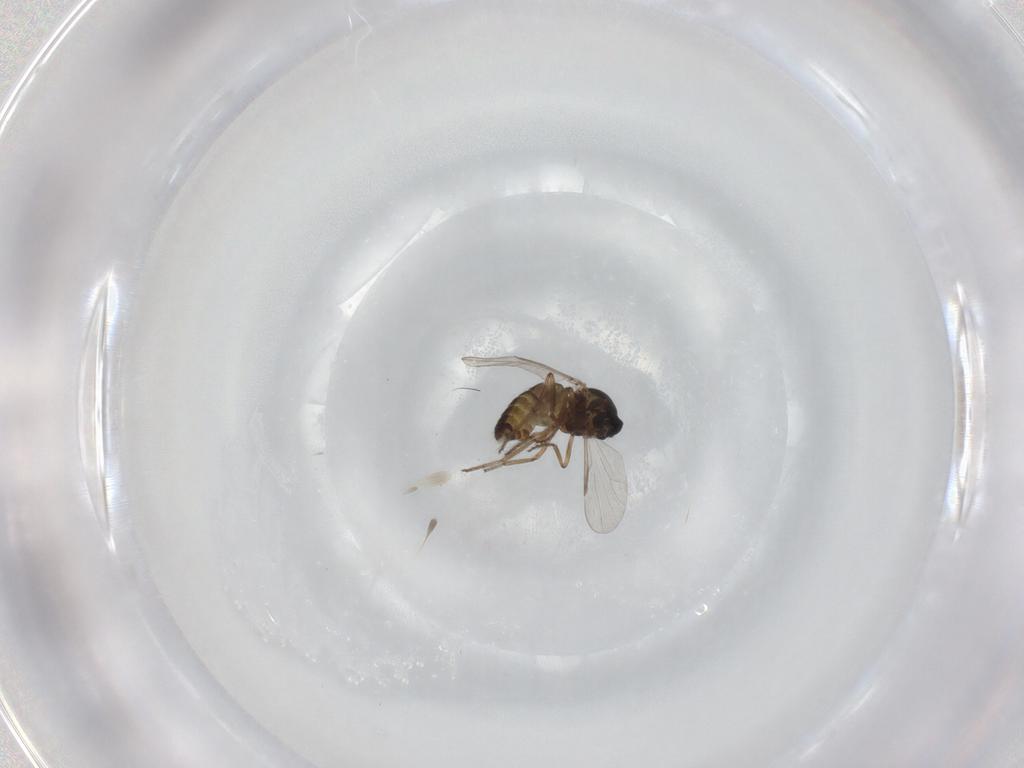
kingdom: Animalia
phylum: Arthropoda
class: Insecta
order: Diptera
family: Ceratopogonidae
